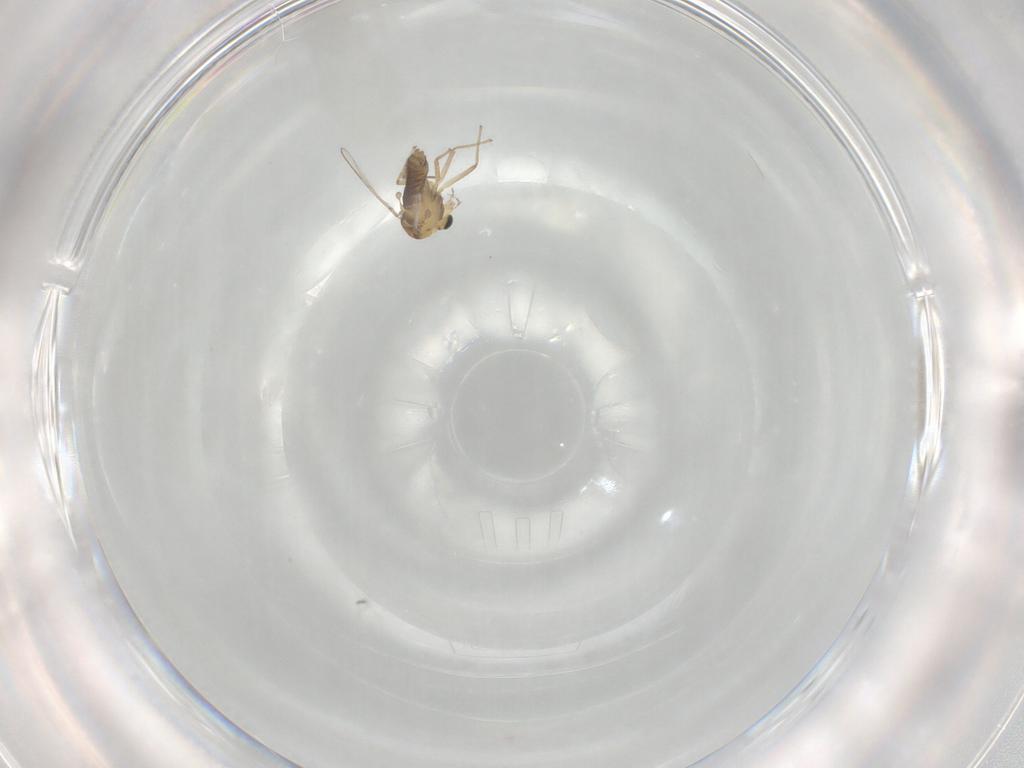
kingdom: Animalia
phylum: Arthropoda
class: Insecta
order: Diptera
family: Chironomidae
